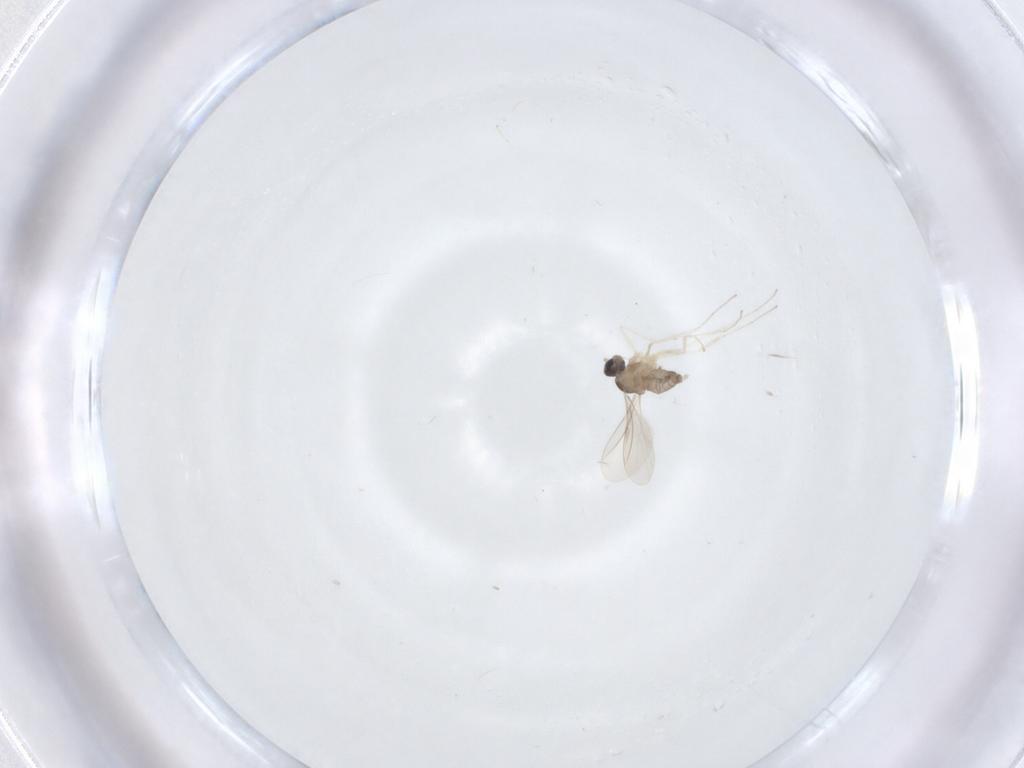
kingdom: Animalia
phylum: Arthropoda
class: Insecta
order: Diptera
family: Cecidomyiidae
